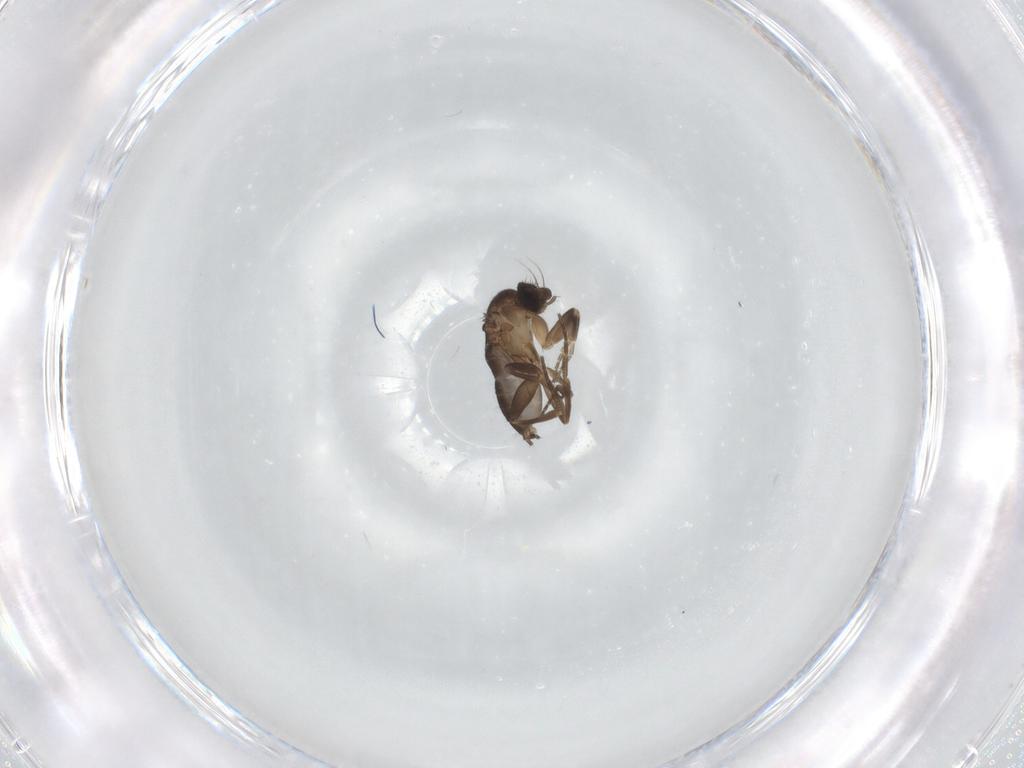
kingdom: Animalia
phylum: Arthropoda
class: Insecta
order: Diptera
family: Phoridae
